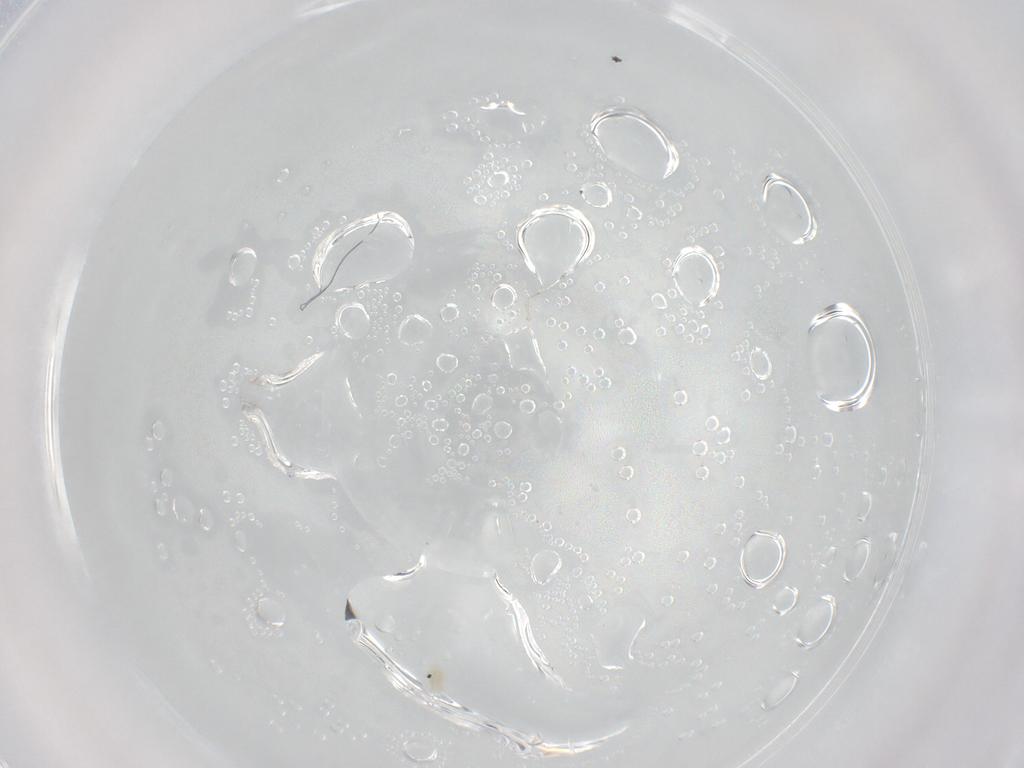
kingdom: Animalia
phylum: Arthropoda
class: Arachnida
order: Trombidiformes
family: Rhagidiidae
